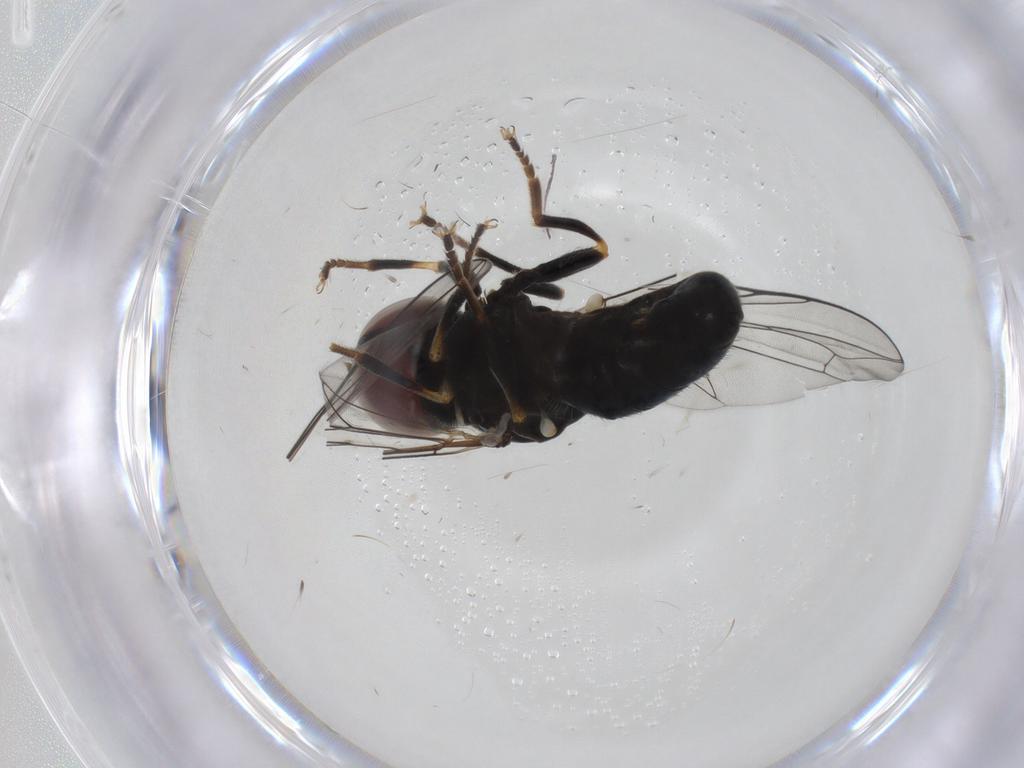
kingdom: Animalia
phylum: Arthropoda
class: Insecta
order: Diptera
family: Pipunculidae
